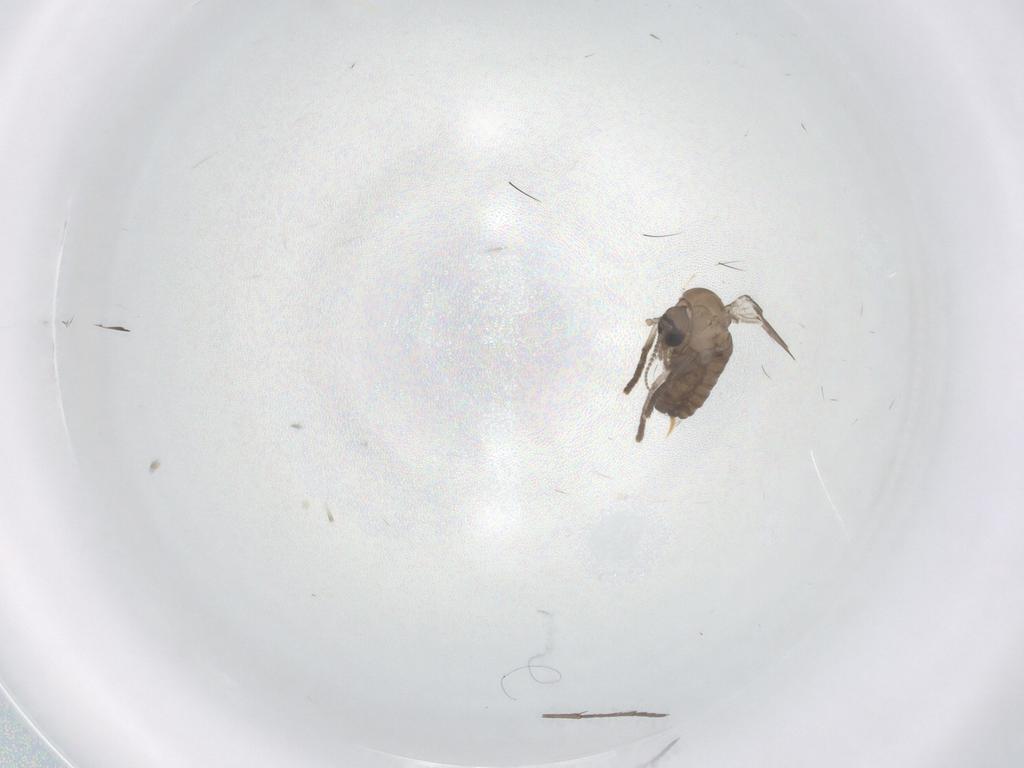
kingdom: Animalia
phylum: Arthropoda
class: Insecta
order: Diptera
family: Psychodidae
